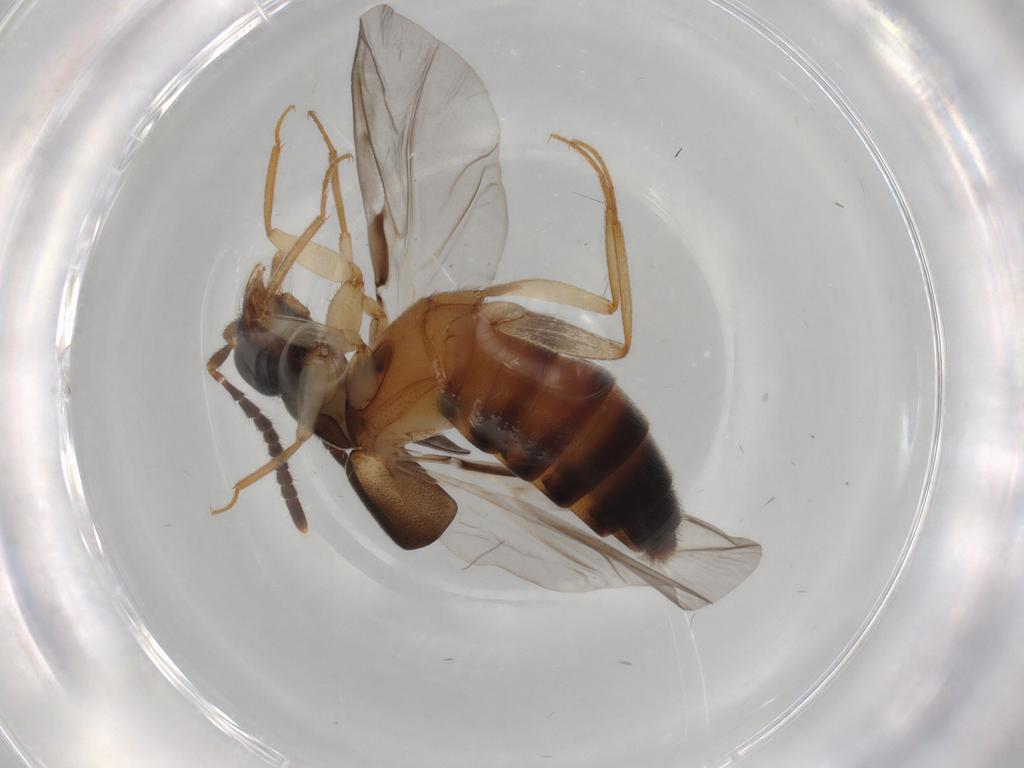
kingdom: Animalia
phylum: Arthropoda
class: Insecta
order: Coleoptera
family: Staphylinidae
